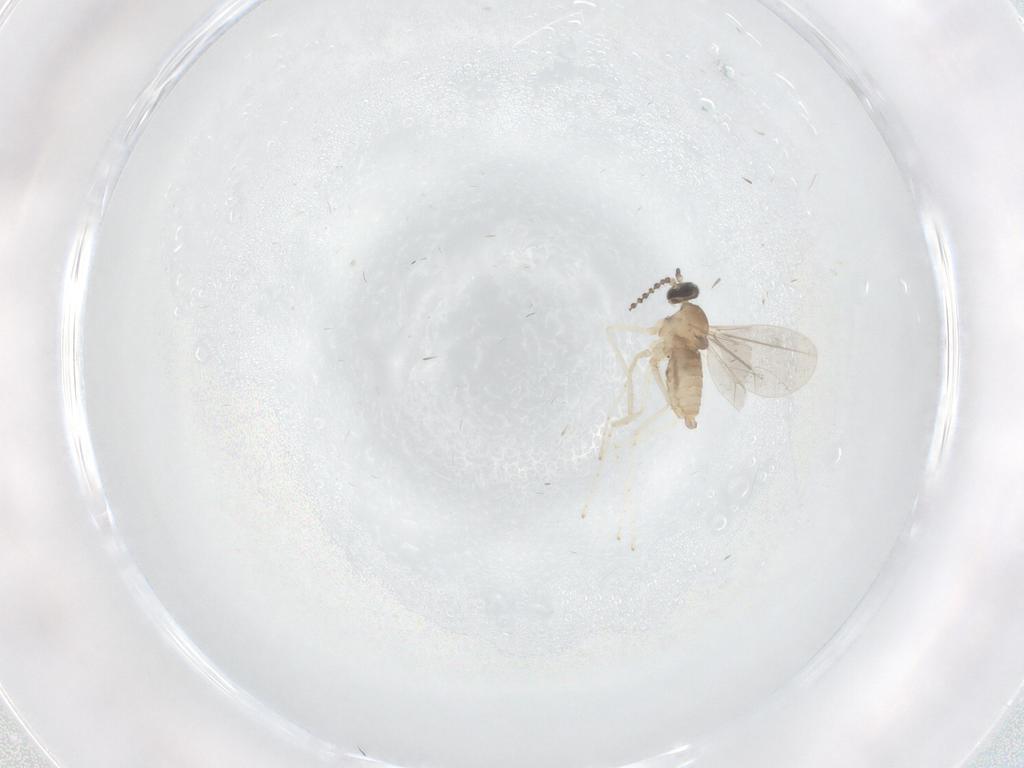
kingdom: Animalia
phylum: Arthropoda
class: Insecta
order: Diptera
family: Cecidomyiidae
